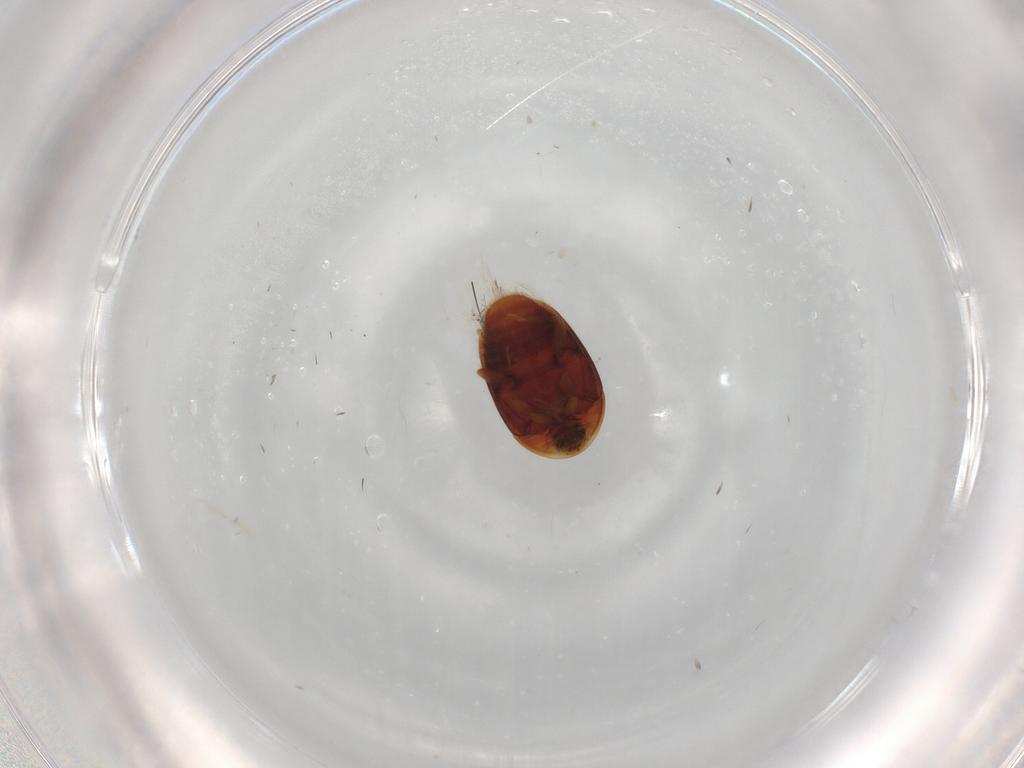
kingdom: Animalia
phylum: Arthropoda
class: Insecta
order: Coleoptera
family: Corylophidae
